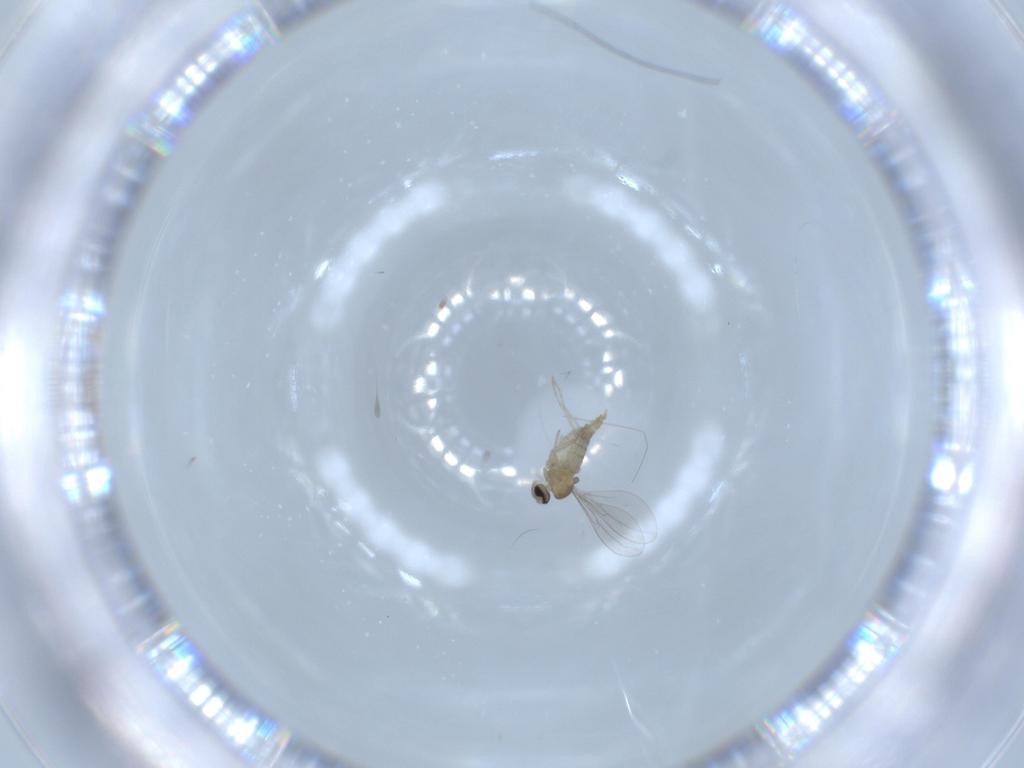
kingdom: Animalia
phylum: Arthropoda
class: Insecta
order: Diptera
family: Cecidomyiidae
